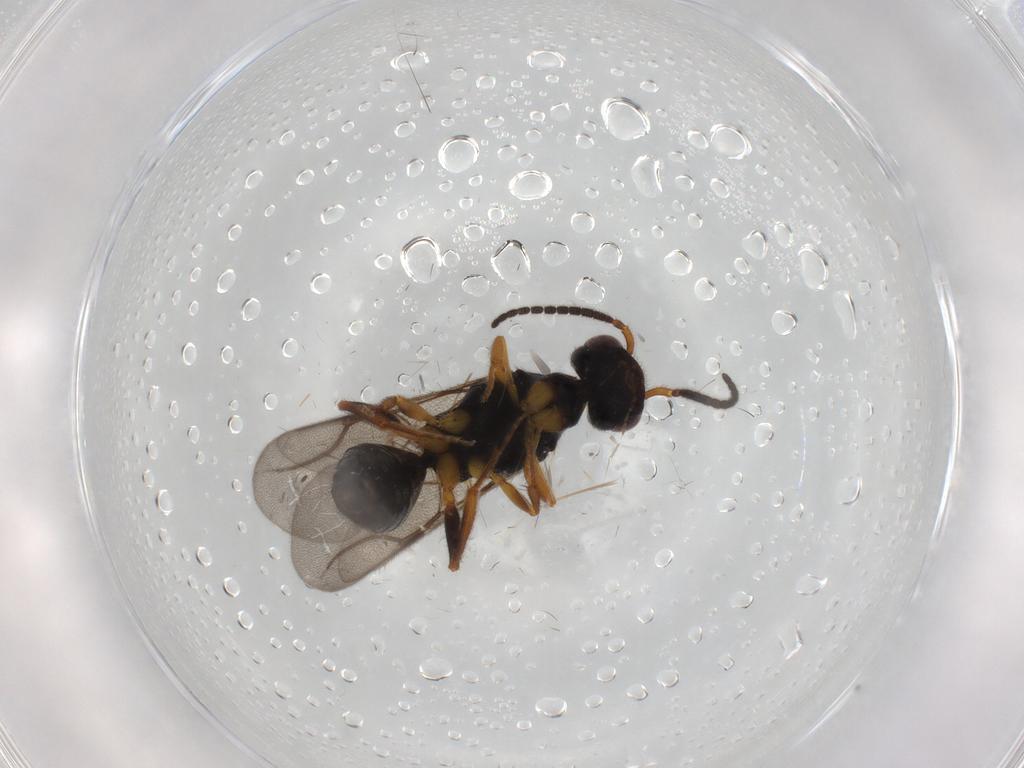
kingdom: Animalia
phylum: Arthropoda
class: Insecta
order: Hymenoptera
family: Bethylidae
